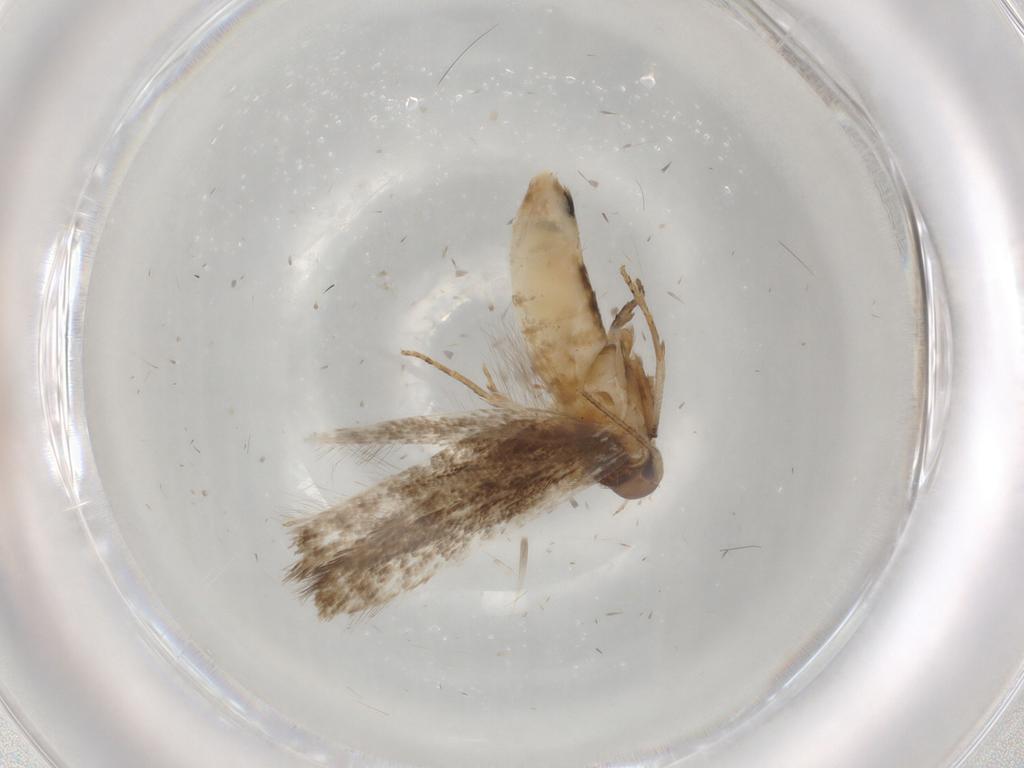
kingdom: Animalia
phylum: Arthropoda
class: Insecta
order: Lepidoptera
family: Cosmopterigidae
